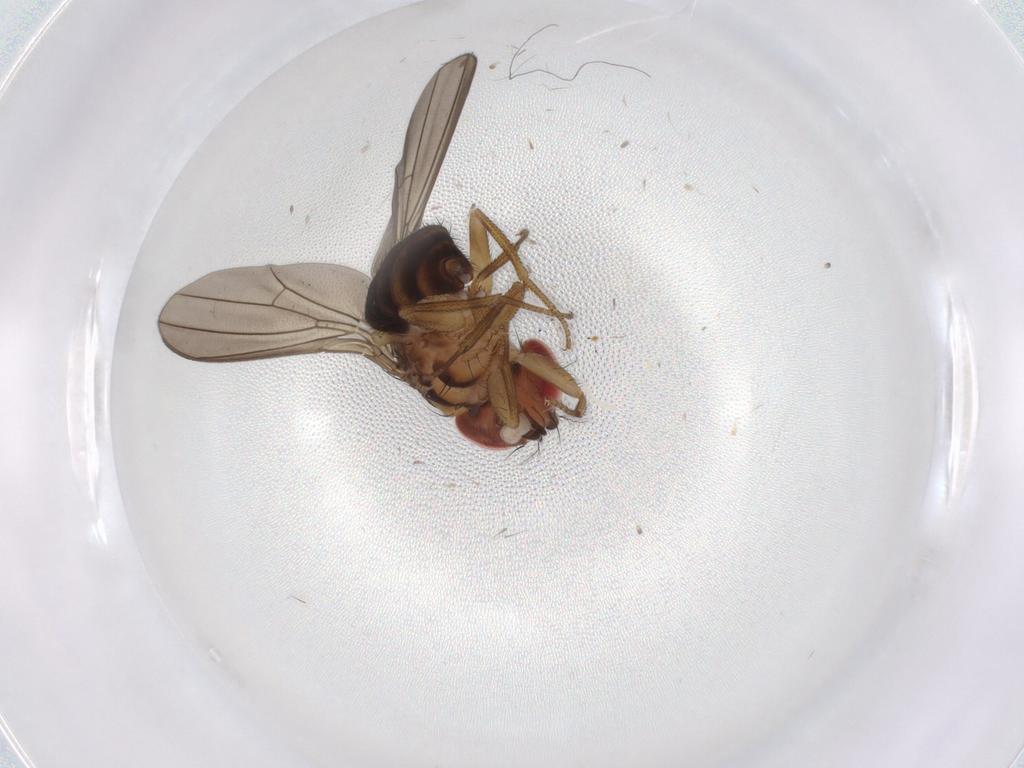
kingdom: Animalia
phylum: Arthropoda
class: Insecta
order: Diptera
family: Drosophilidae
